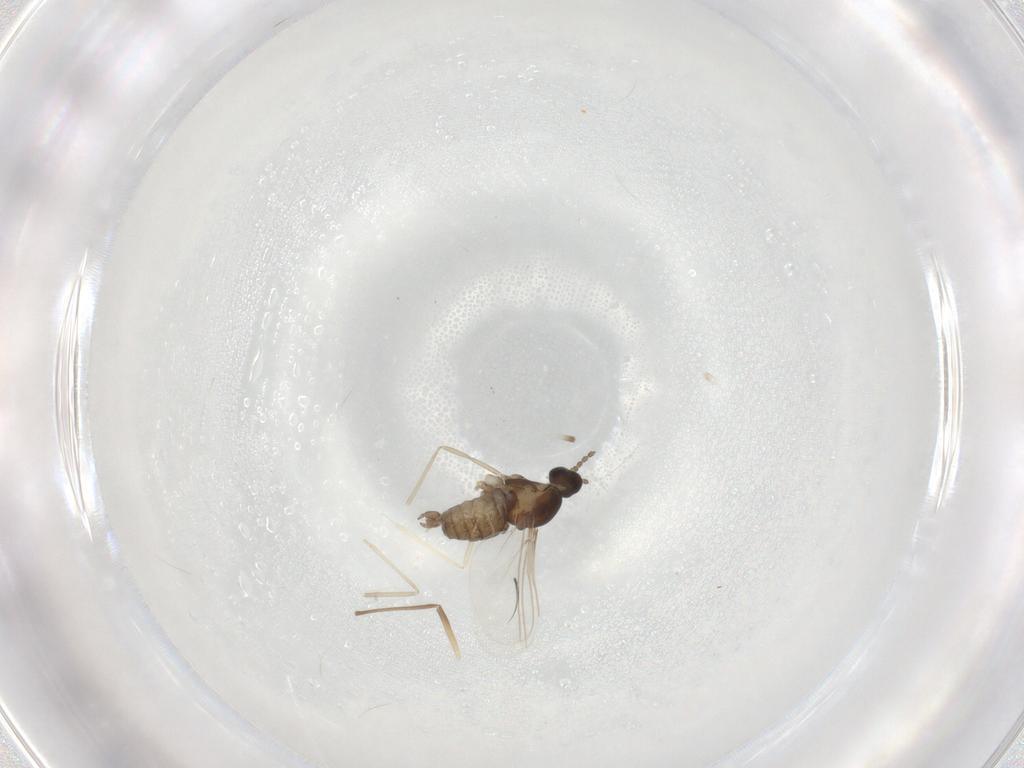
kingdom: Animalia
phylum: Arthropoda
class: Insecta
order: Diptera
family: Cecidomyiidae
